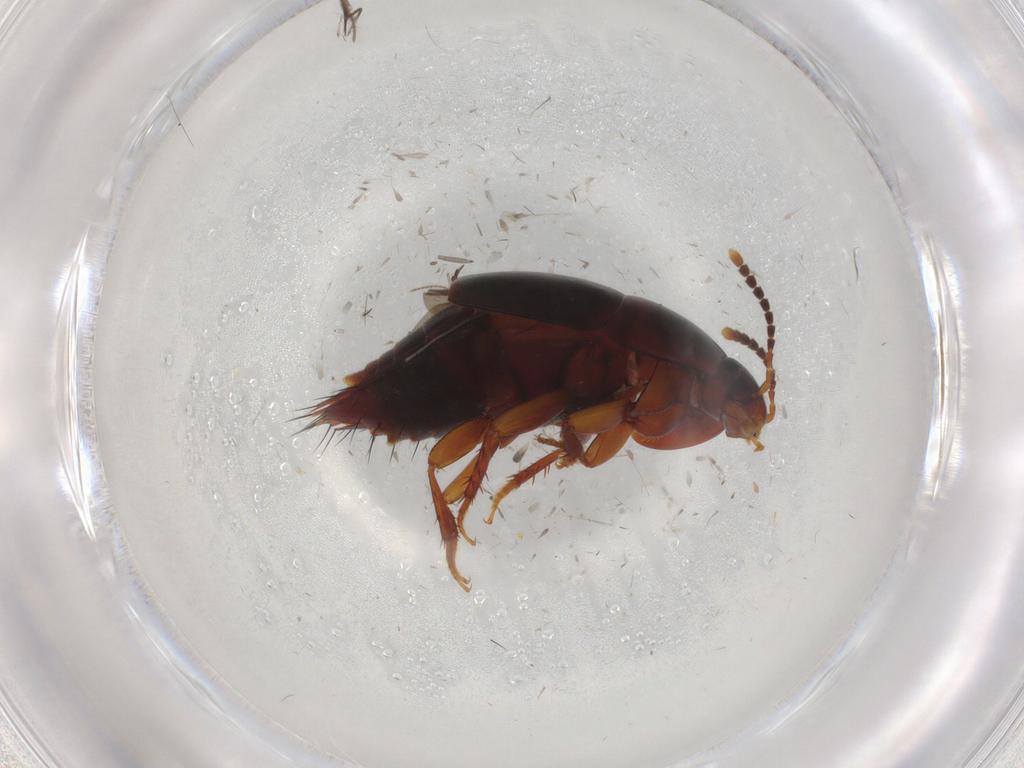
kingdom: Animalia
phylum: Arthropoda
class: Insecta
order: Coleoptera
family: Staphylinidae
